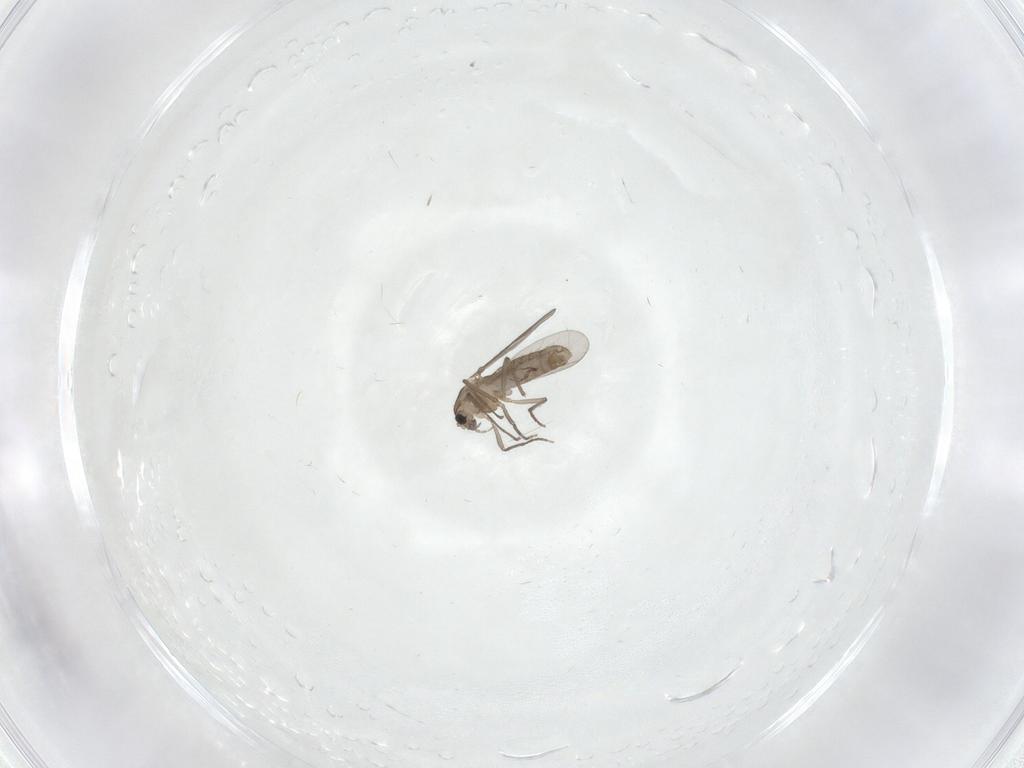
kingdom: Animalia
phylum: Arthropoda
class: Insecta
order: Diptera
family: Chironomidae
